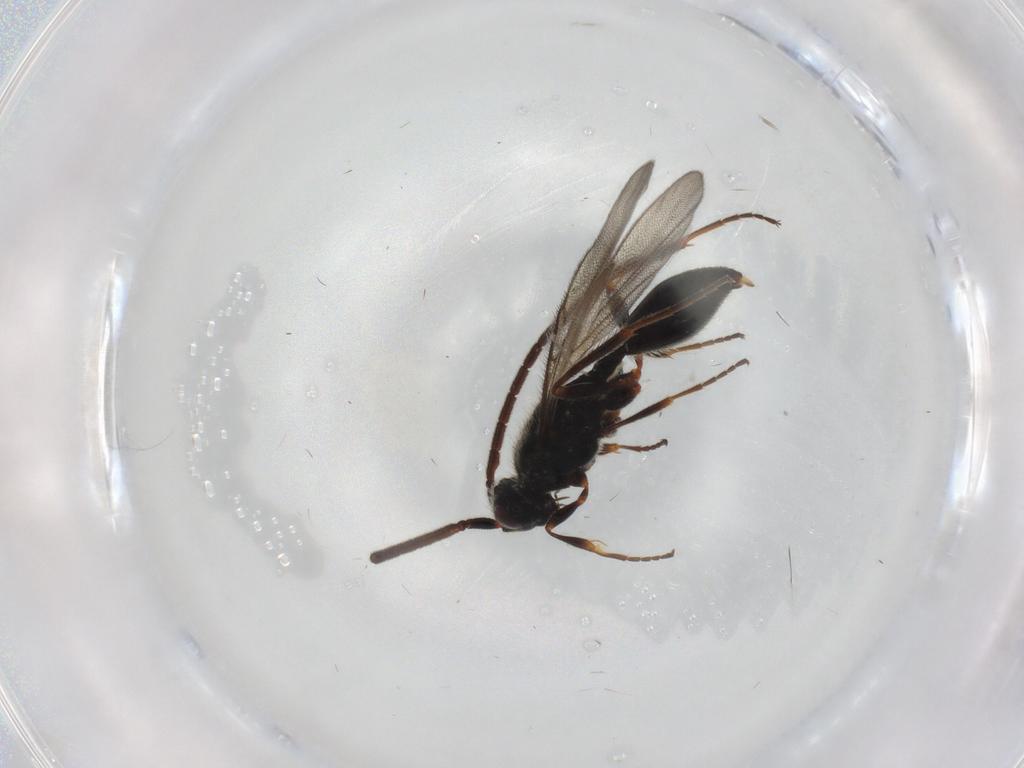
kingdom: Animalia
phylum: Arthropoda
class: Insecta
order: Hymenoptera
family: Diapriidae
